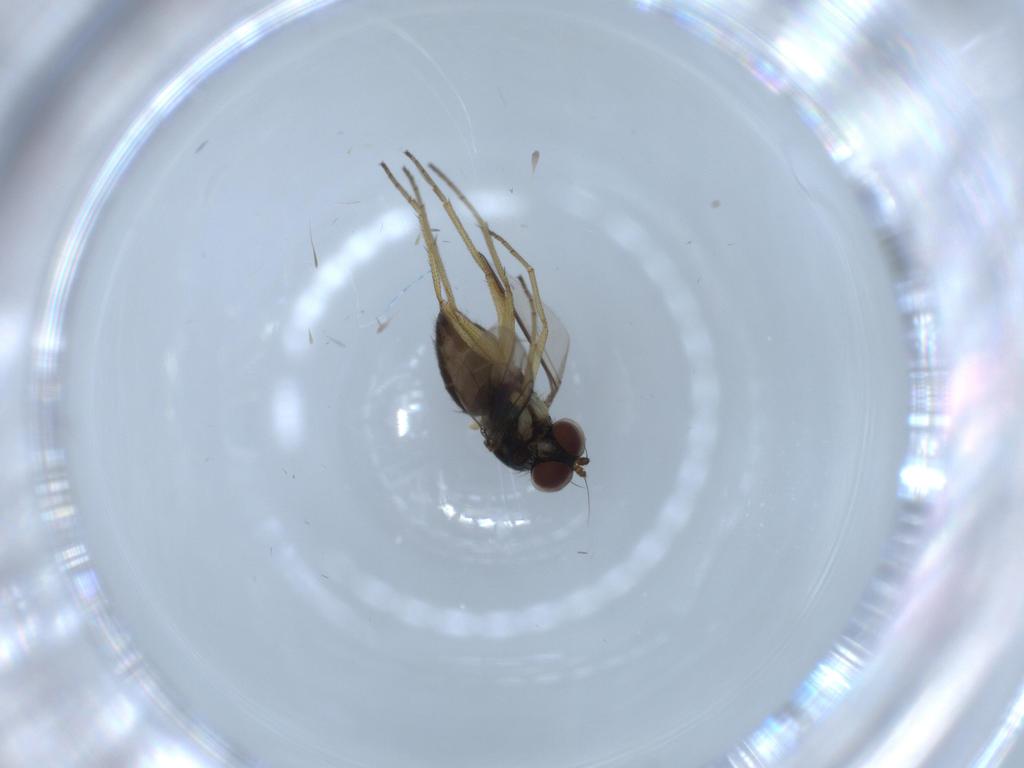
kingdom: Animalia
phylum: Arthropoda
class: Insecta
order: Diptera
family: Dolichopodidae
